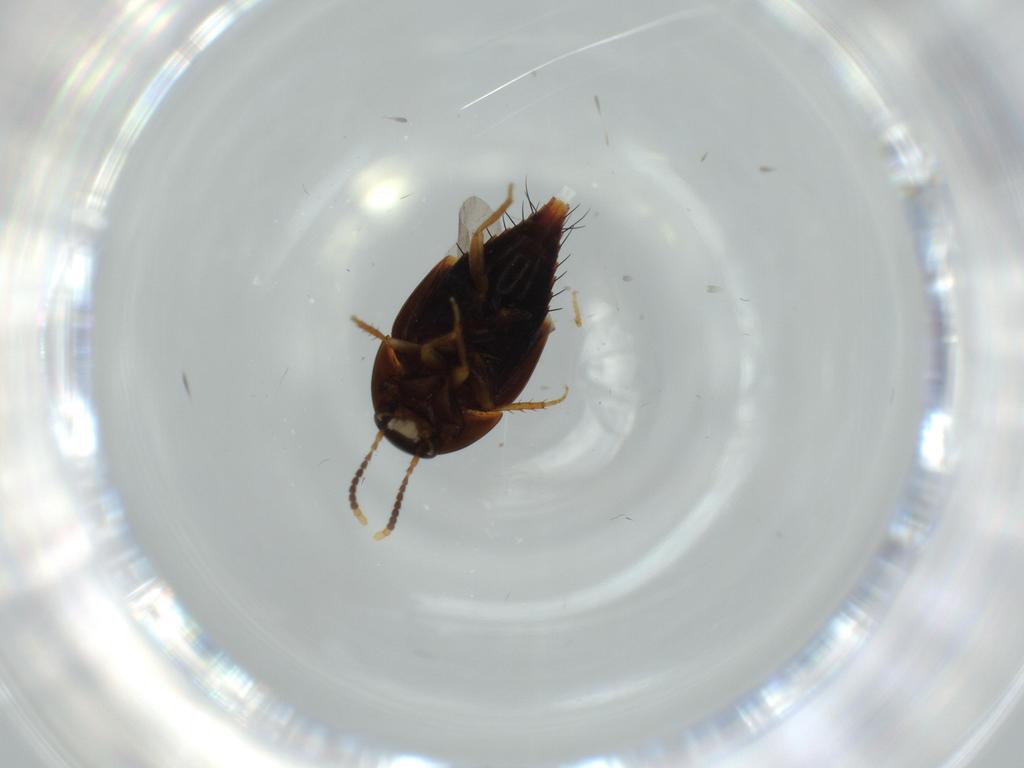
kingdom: Animalia
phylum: Arthropoda
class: Insecta
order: Coleoptera
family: Staphylinidae
